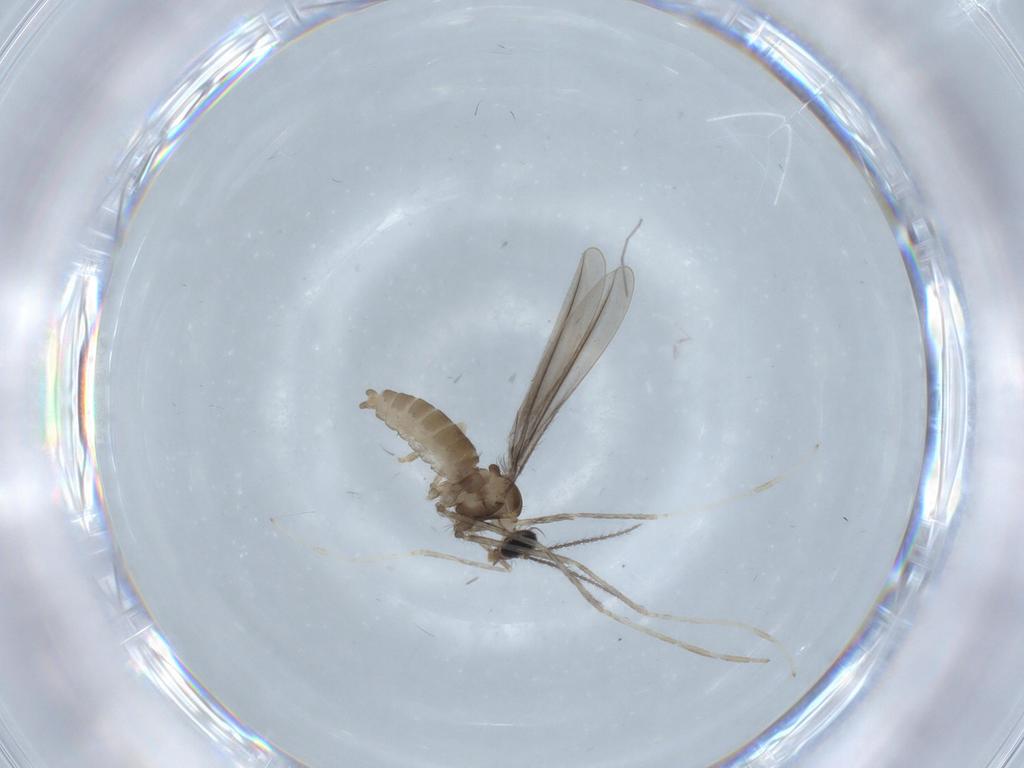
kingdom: Animalia
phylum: Arthropoda
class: Insecta
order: Diptera
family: Cecidomyiidae
